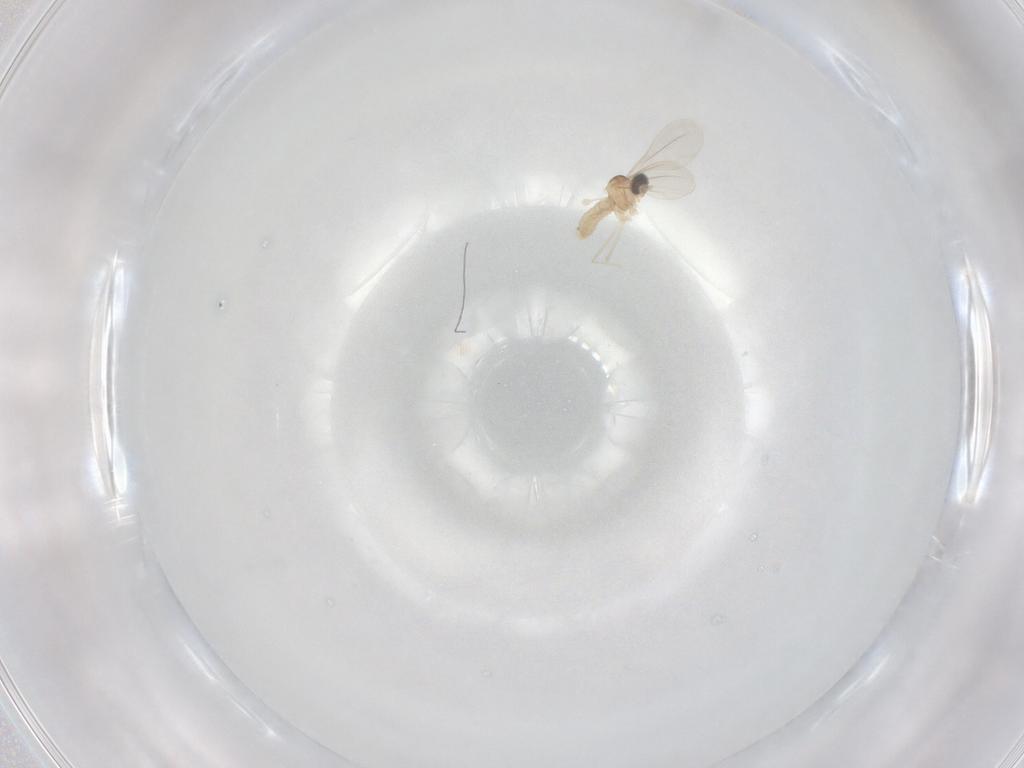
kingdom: Animalia
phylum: Arthropoda
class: Insecta
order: Diptera
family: Cecidomyiidae
